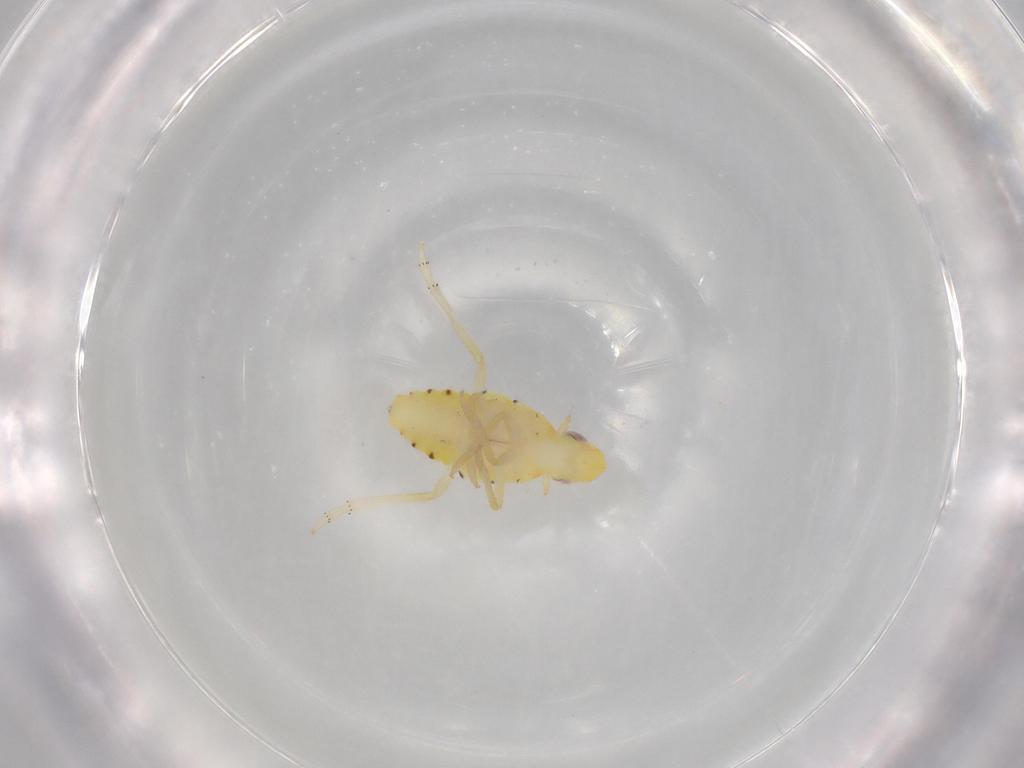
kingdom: Animalia
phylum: Arthropoda
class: Insecta
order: Hemiptera
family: Tropiduchidae
